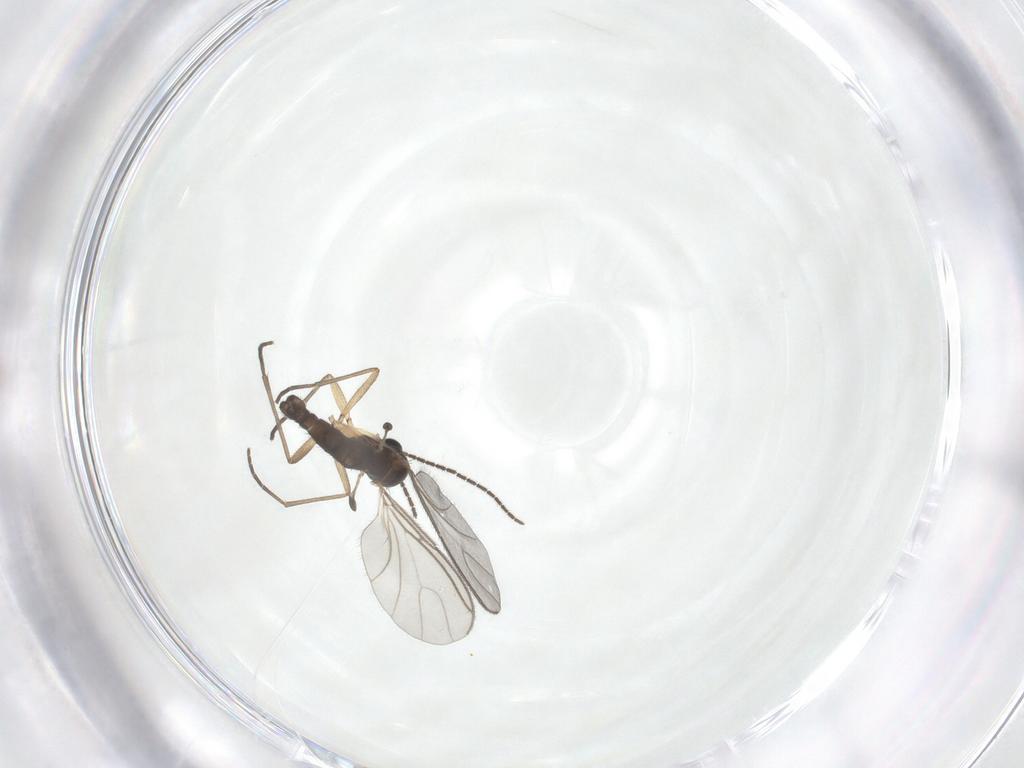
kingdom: Animalia
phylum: Arthropoda
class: Insecta
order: Diptera
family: Sciaridae
